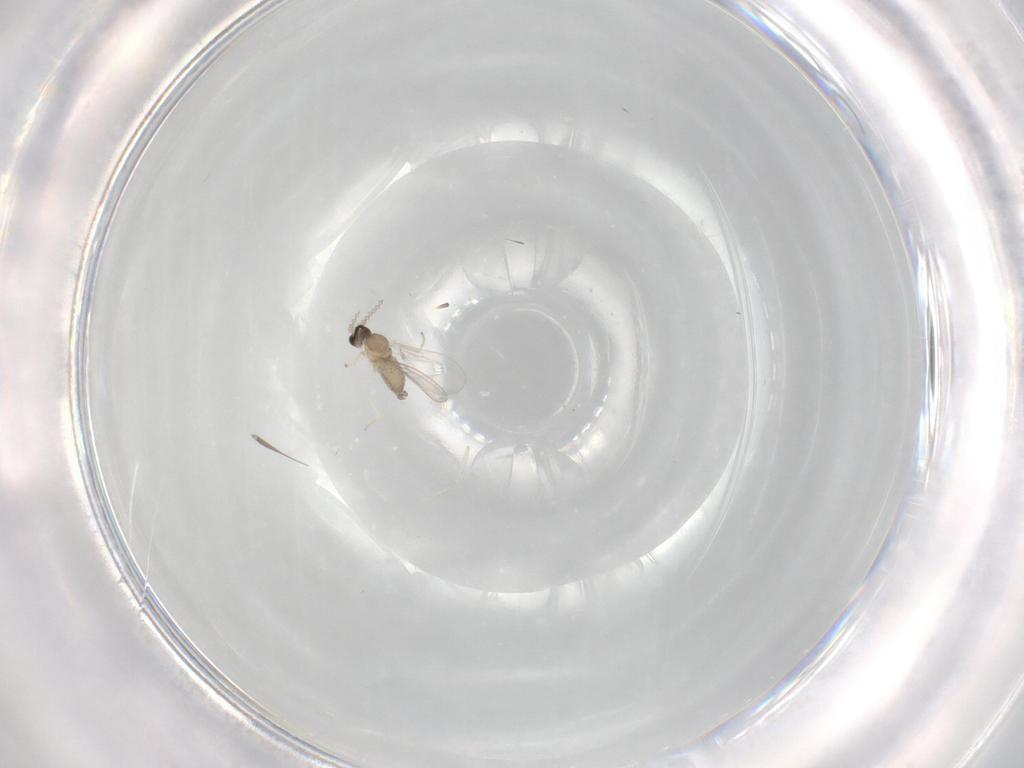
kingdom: Animalia
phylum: Arthropoda
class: Insecta
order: Diptera
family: Cecidomyiidae
